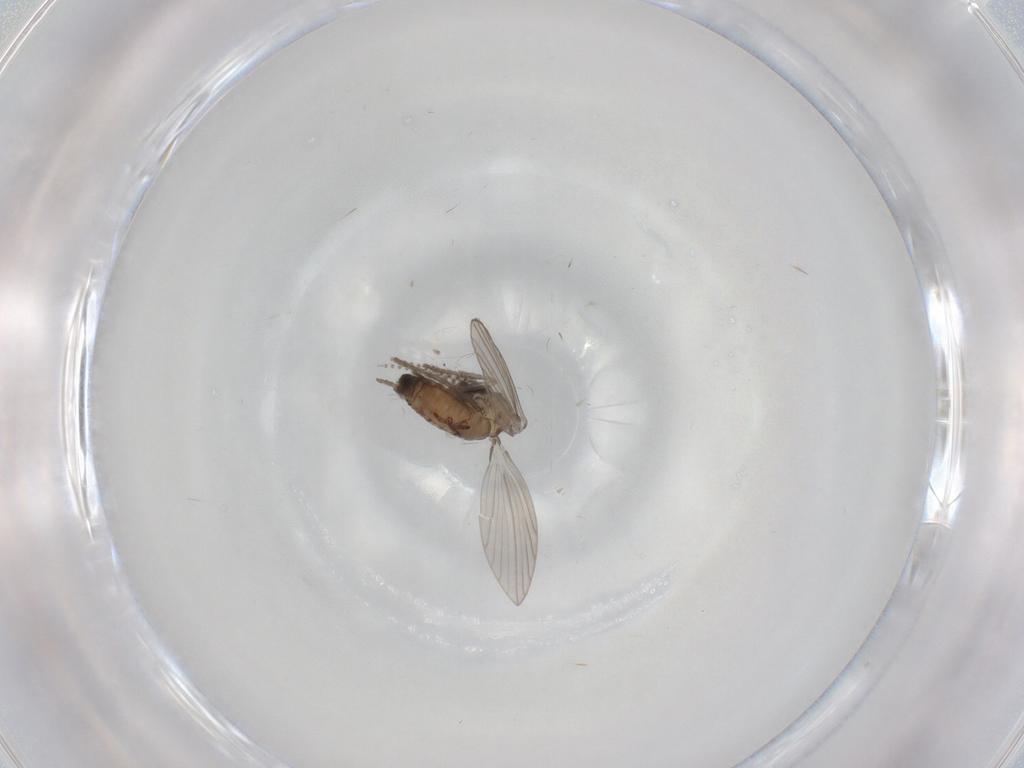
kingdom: Animalia
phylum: Arthropoda
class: Insecta
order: Diptera
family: Psychodidae
